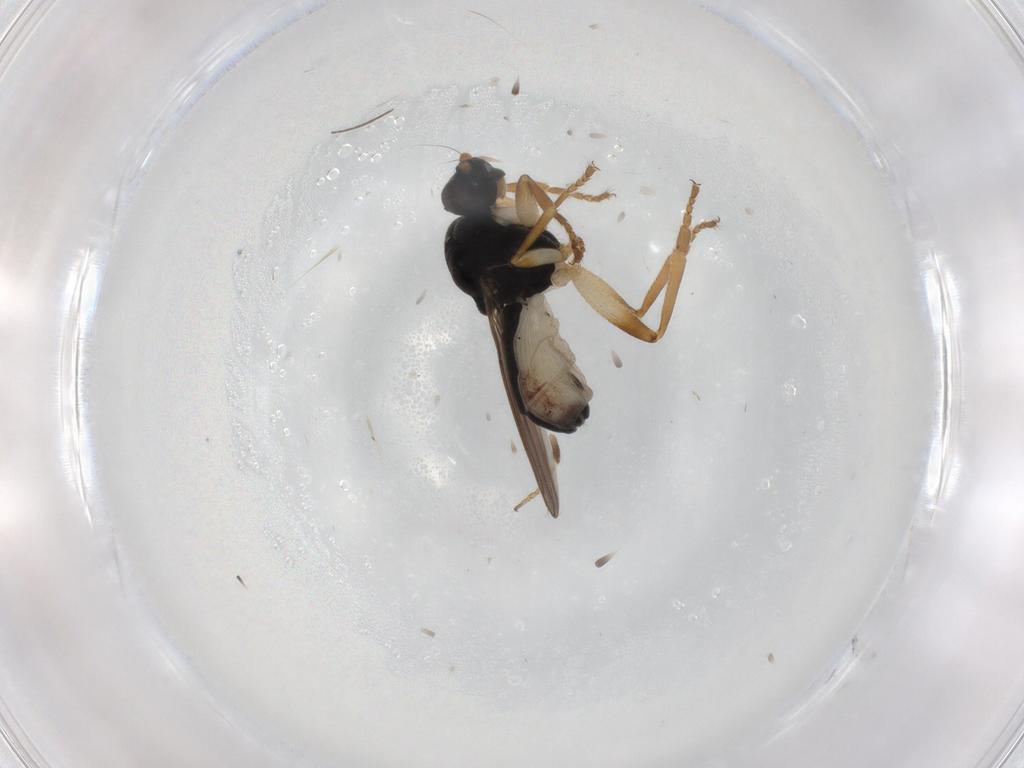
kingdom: Animalia
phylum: Arthropoda
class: Insecta
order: Diptera
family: Sphaeroceridae
